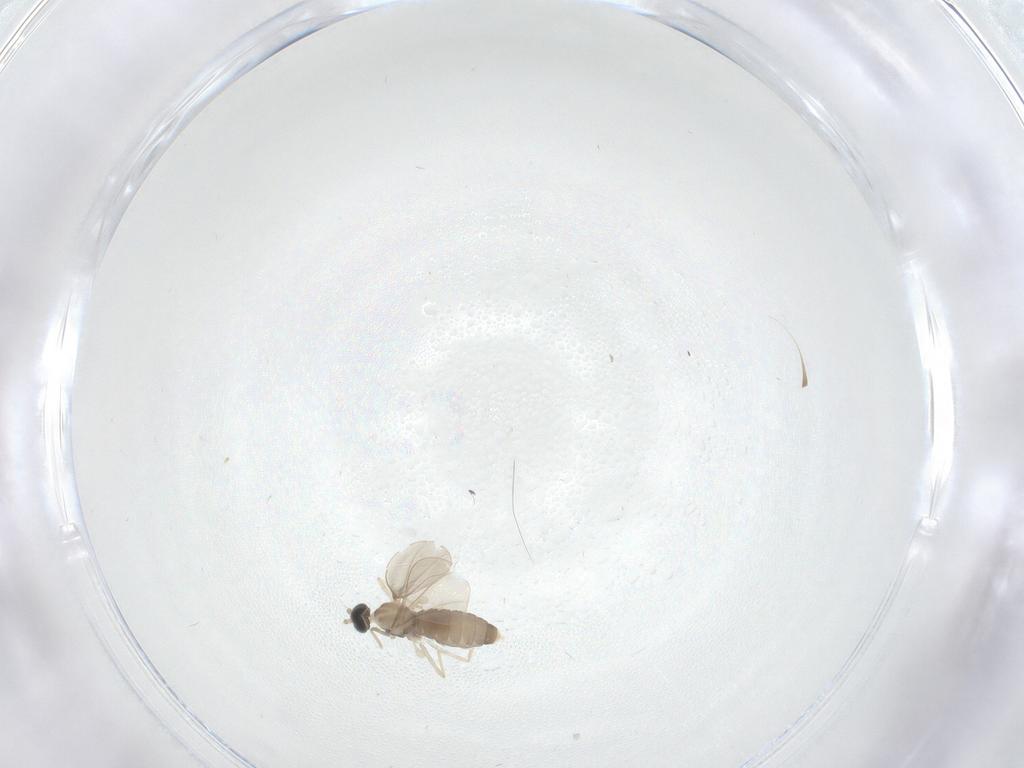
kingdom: Animalia
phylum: Arthropoda
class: Insecta
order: Diptera
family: Cecidomyiidae
